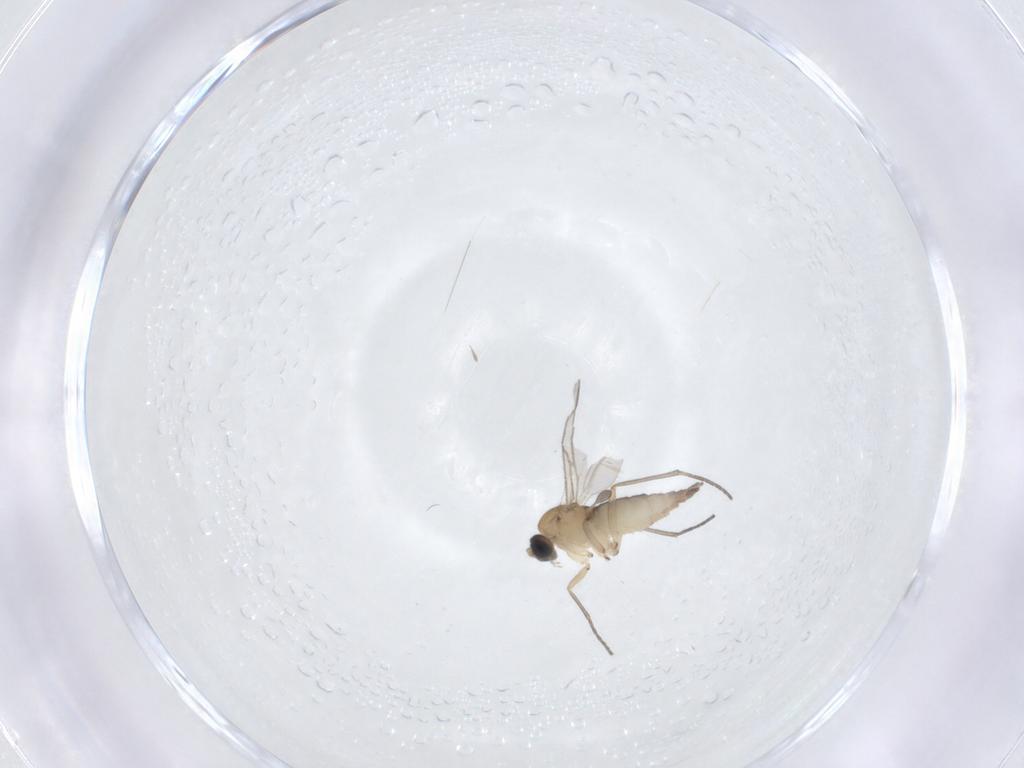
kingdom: Animalia
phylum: Arthropoda
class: Insecta
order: Diptera
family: Sciaridae
